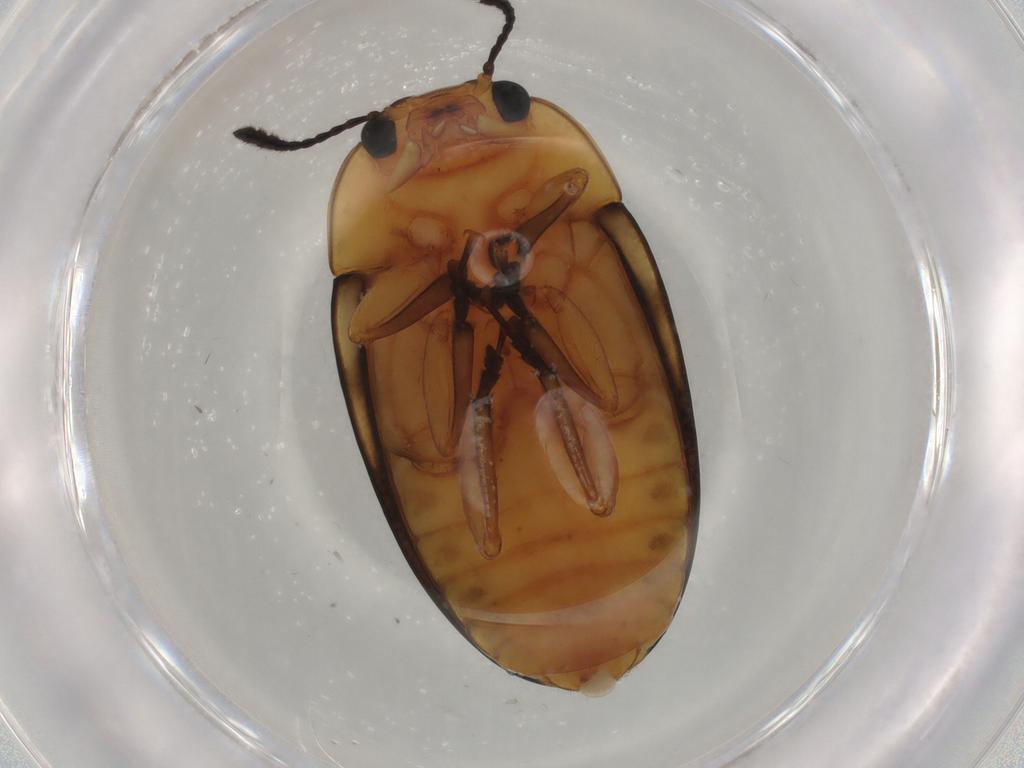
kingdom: Animalia
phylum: Arthropoda
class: Insecta
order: Coleoptera
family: Erotylidae
